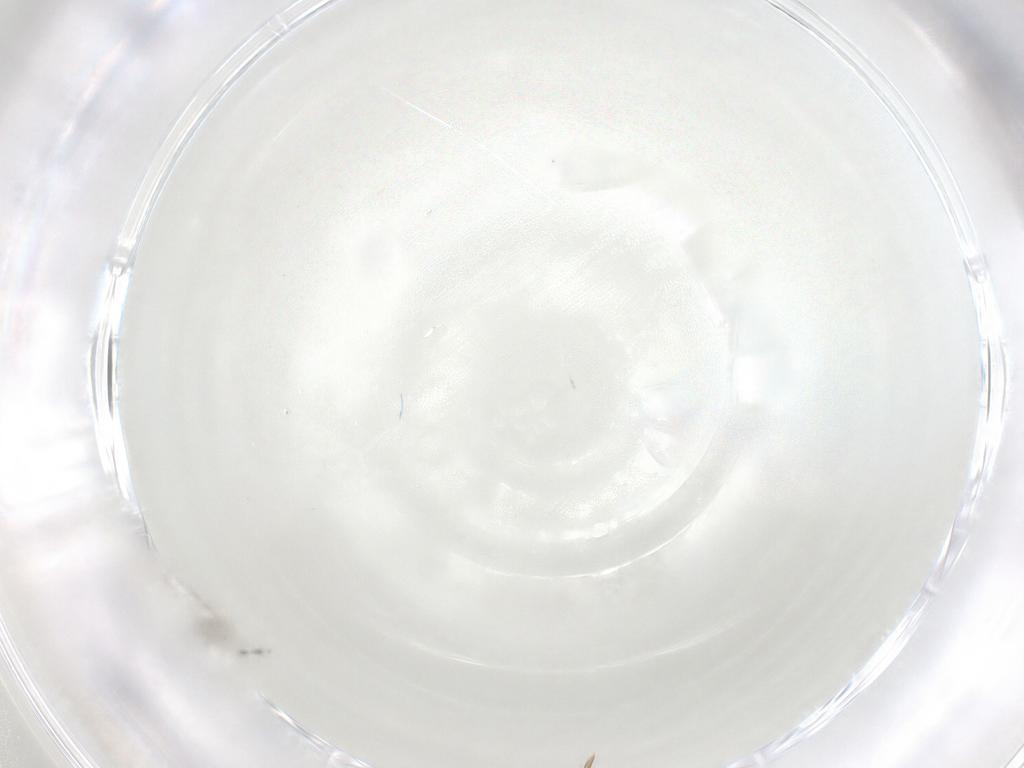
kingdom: Animalia
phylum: Arthropoda
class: Insecta
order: Diptera
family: Cecidomyiidae
